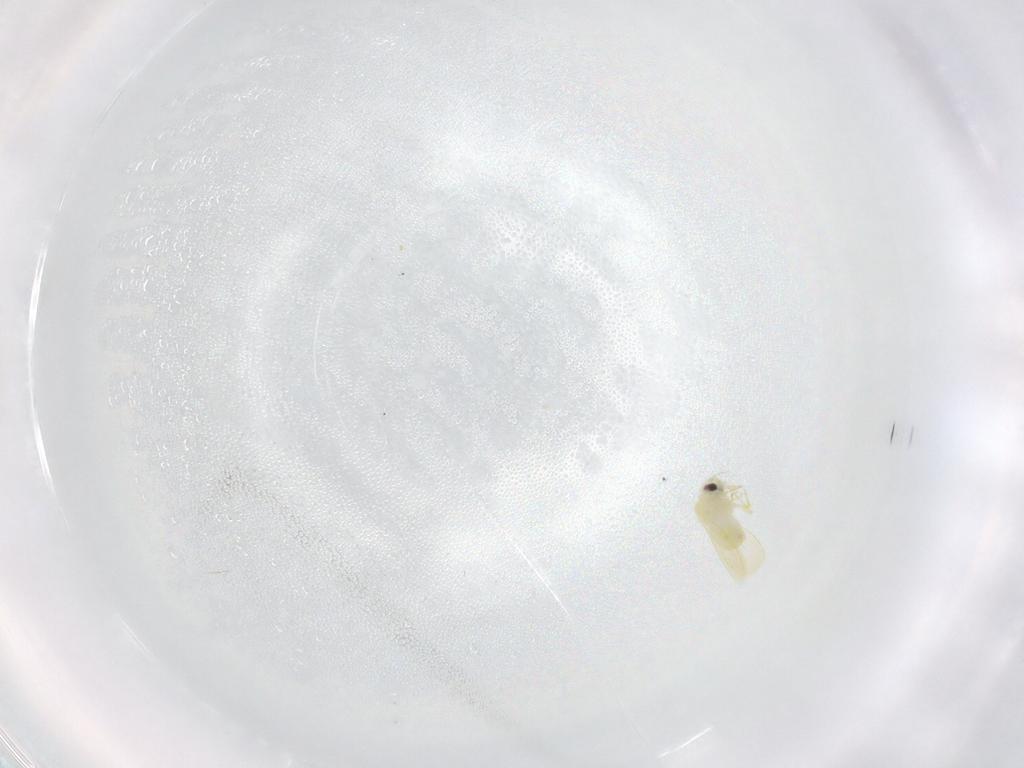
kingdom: Animalia
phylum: Arthropoda
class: Insecta
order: Hemiptera
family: Aleyrodidae
